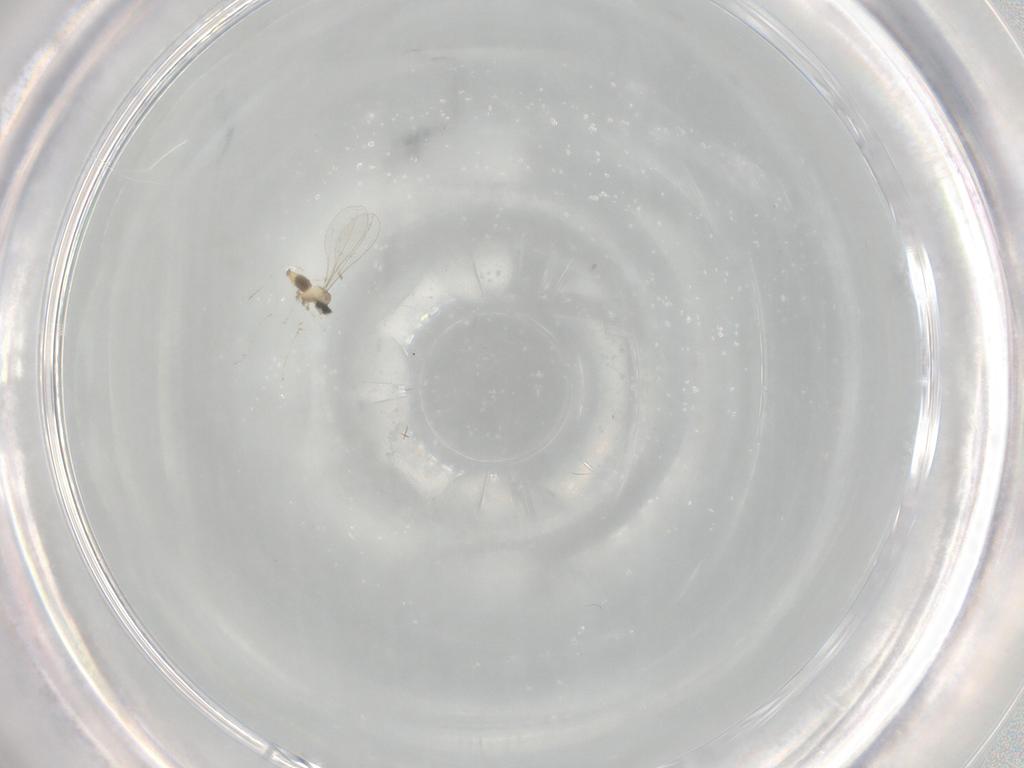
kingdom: Animalia
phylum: Arthropoda
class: Insecta
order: Diptera
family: Cecidomyiidae
